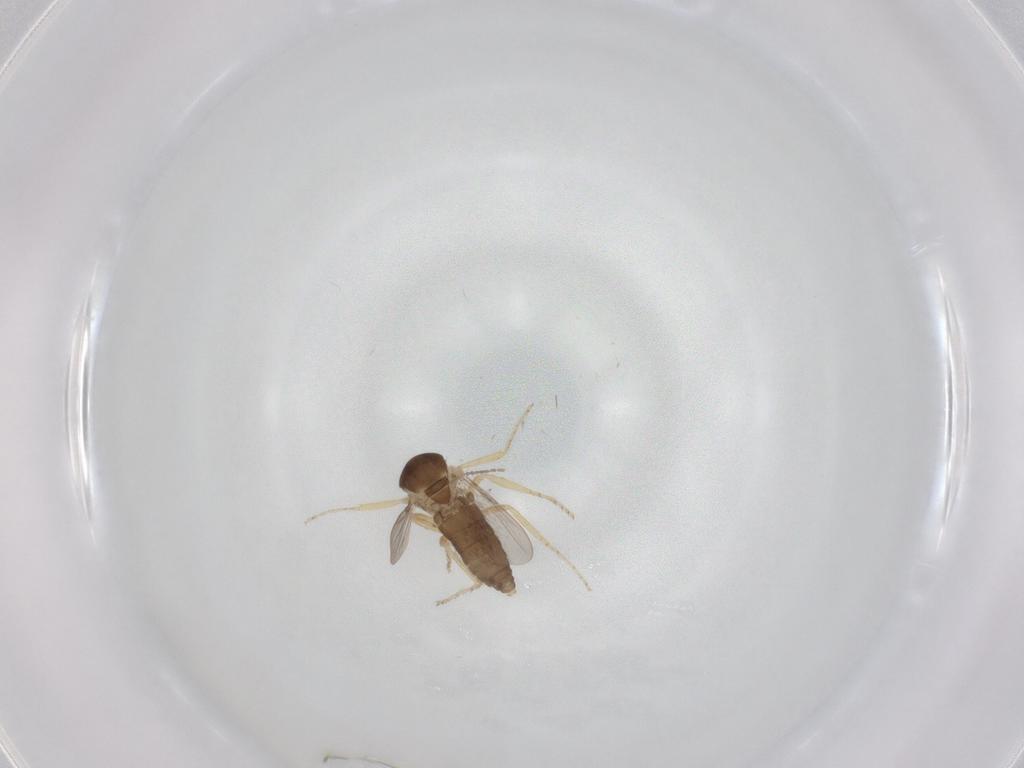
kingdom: Animalia
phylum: Arthropoda
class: Insecta
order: Diptera
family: Ceratopogonidae
